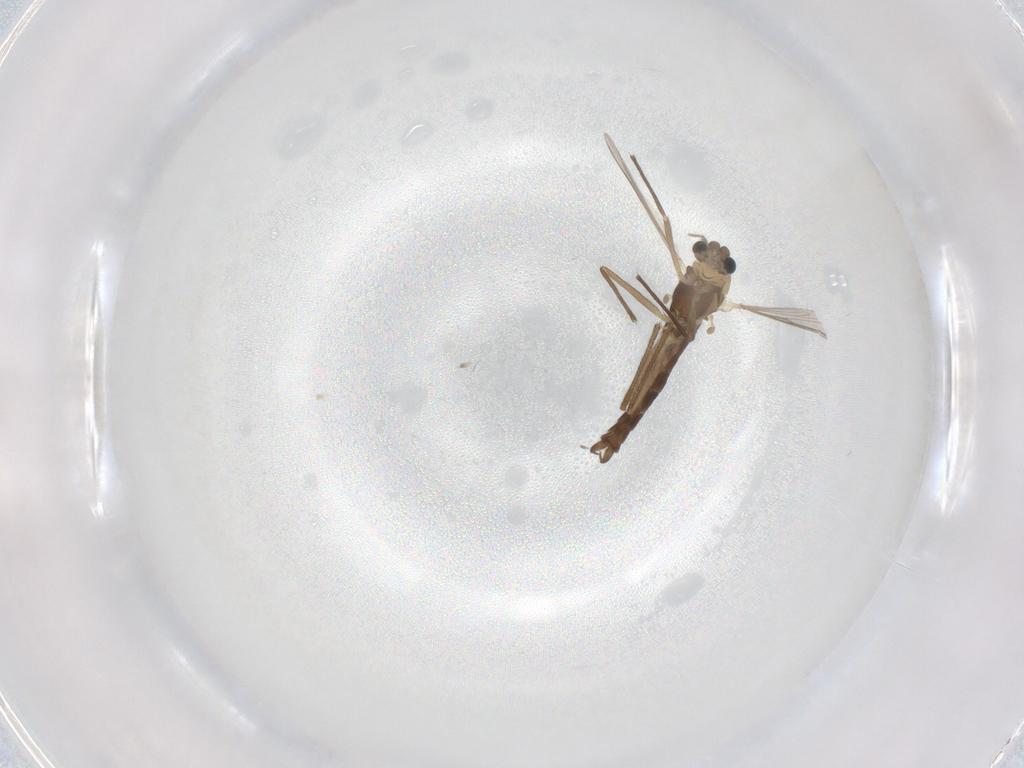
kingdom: Animalia
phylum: Arthropoda
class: Insecta
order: Diptera
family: Chironomidae
